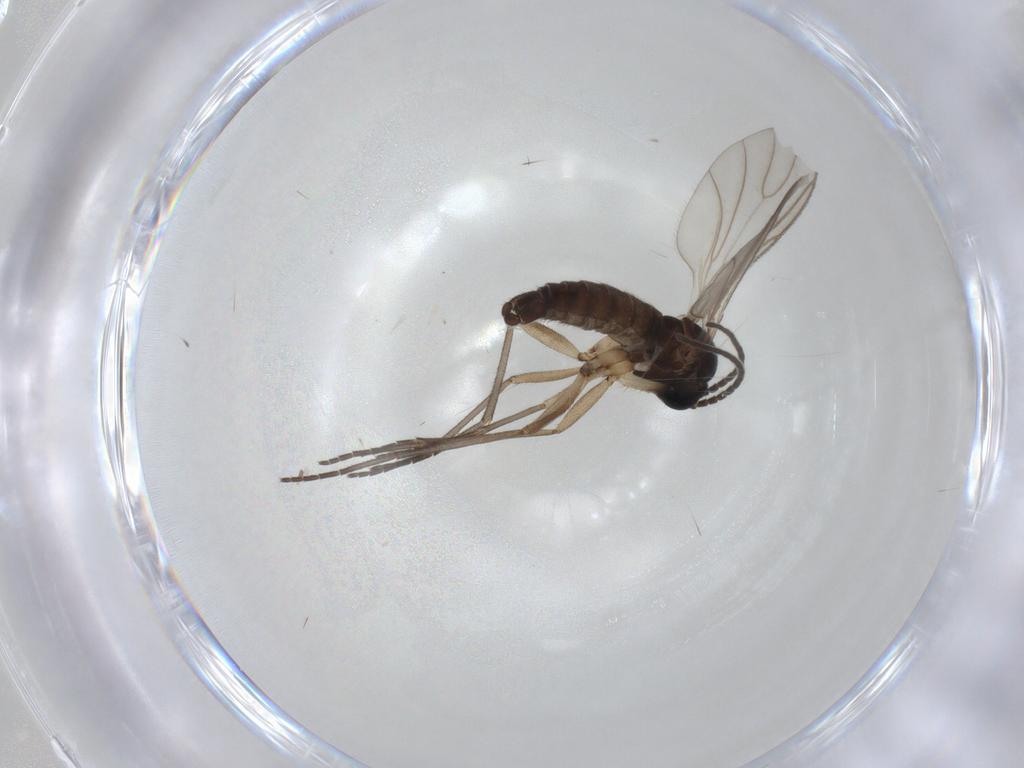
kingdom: Animalia
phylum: Arthropoda
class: Insecta
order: Diptera
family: Sciaridae
